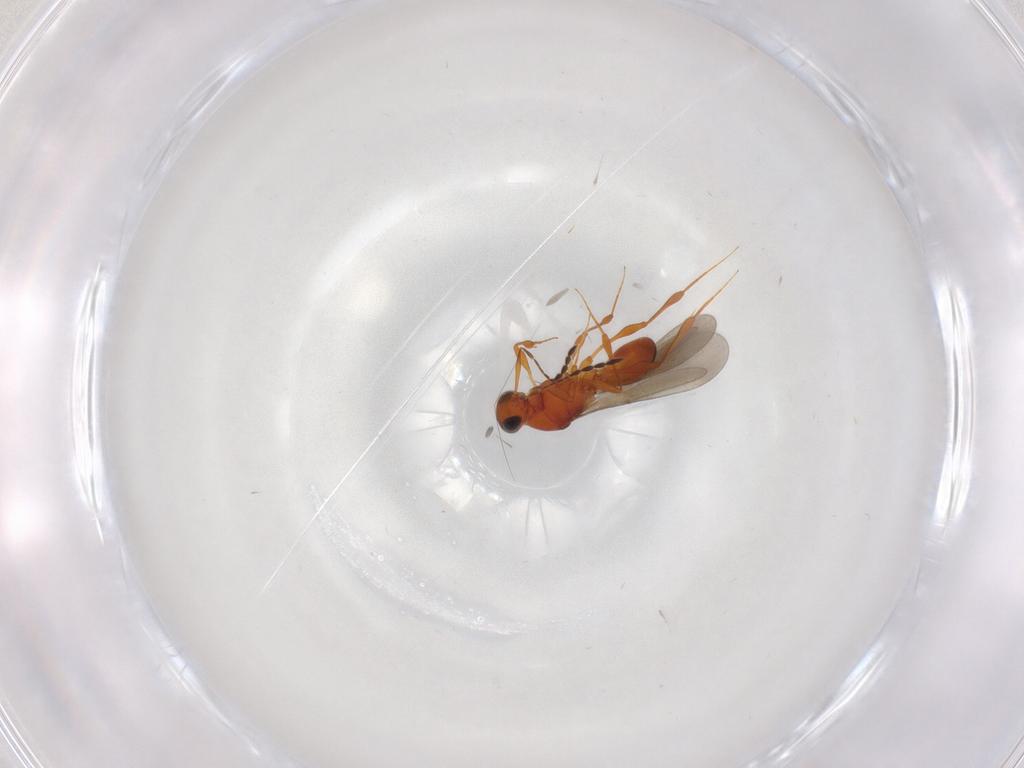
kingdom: Animalia
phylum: Arthropoda
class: Insecta
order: Hymenoptera
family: Platygastridae
